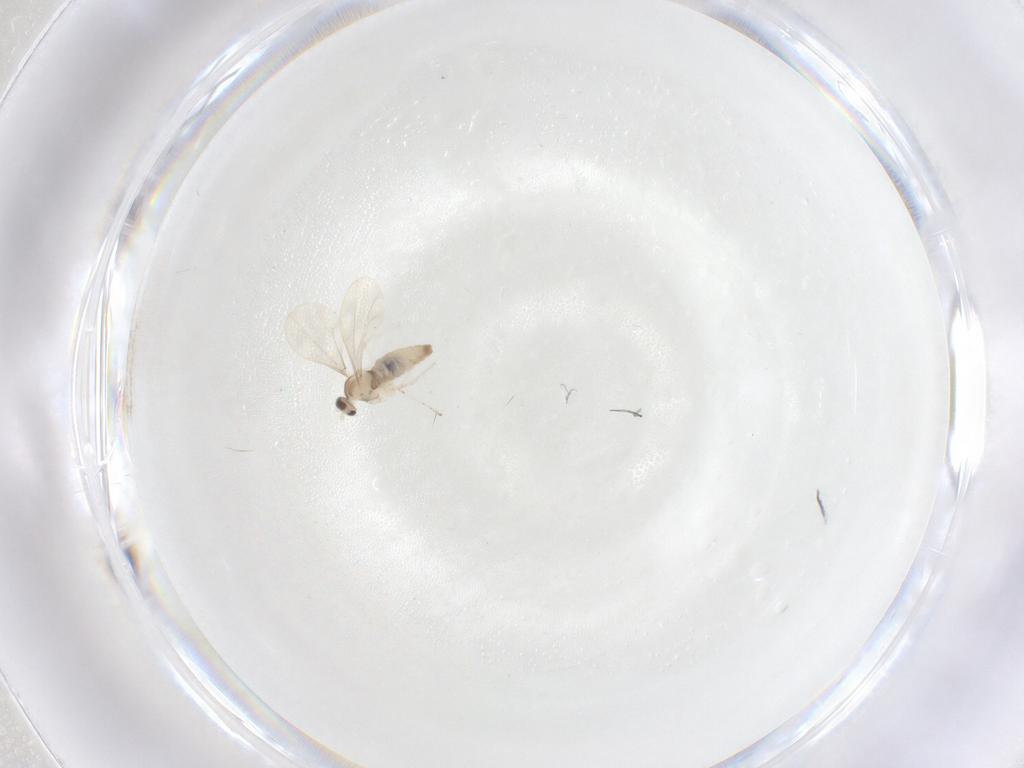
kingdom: Animalia
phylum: Arthropoda
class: Insecta
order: Diptera
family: Cecidomyiidae
